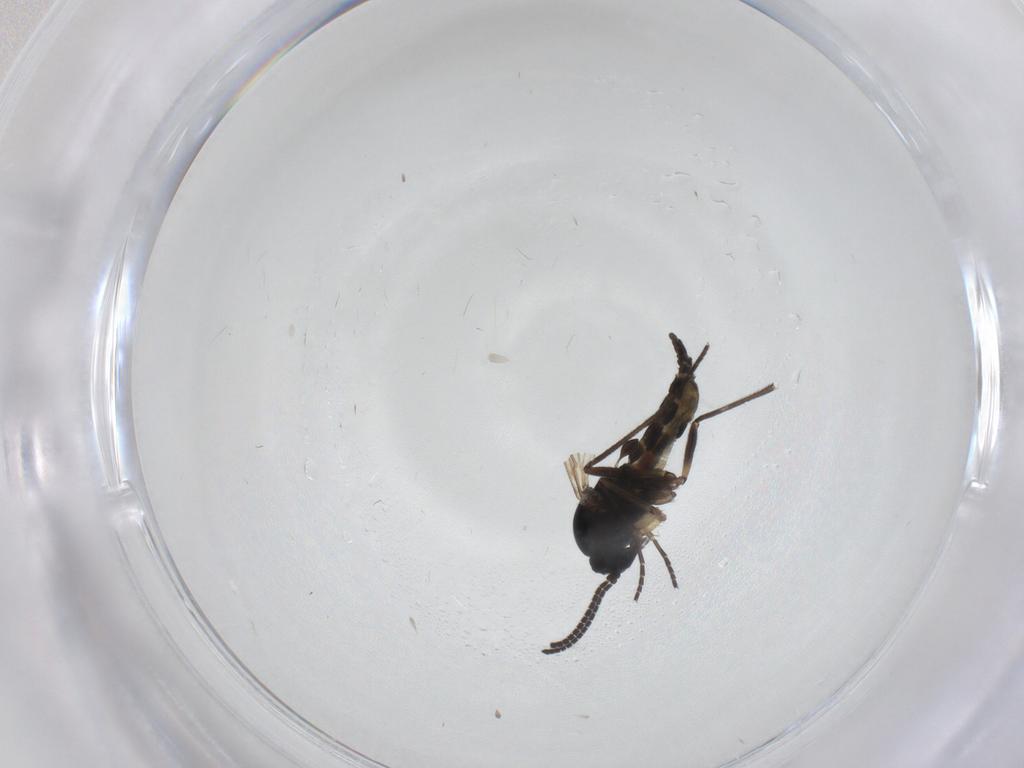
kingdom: Animalia
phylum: Arthropoda
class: Insecta
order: Diptera
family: Sciaridae
